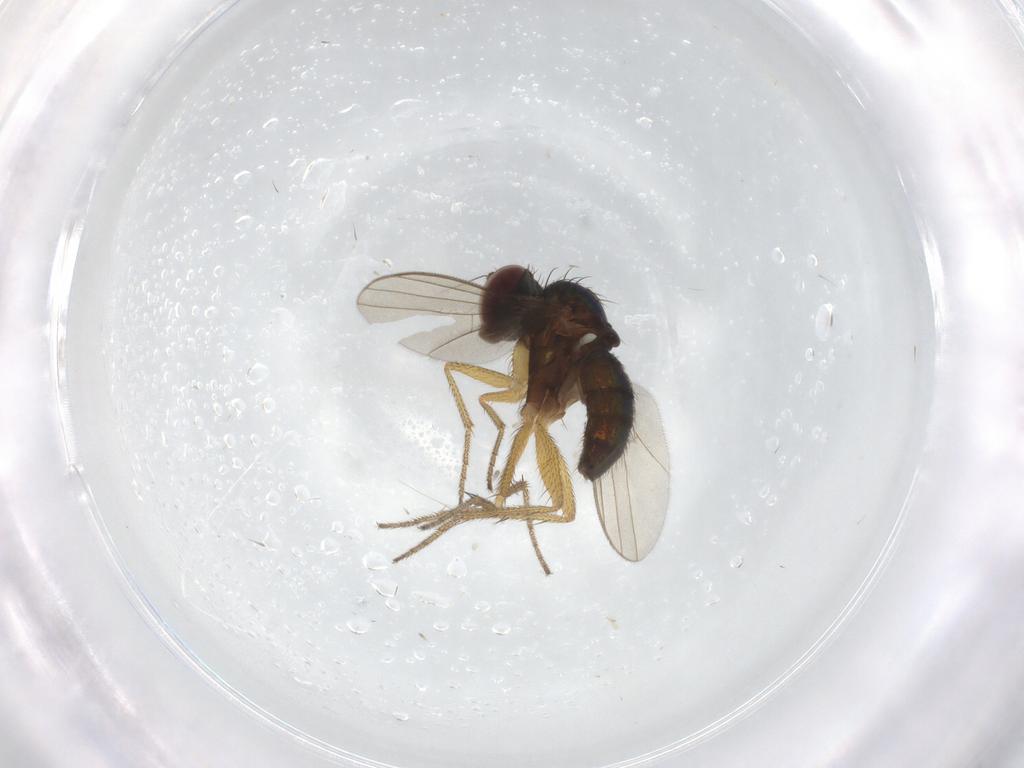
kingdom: Animalia
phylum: Arthropoda
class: Insecta
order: Diptera
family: Dolichopodidae
